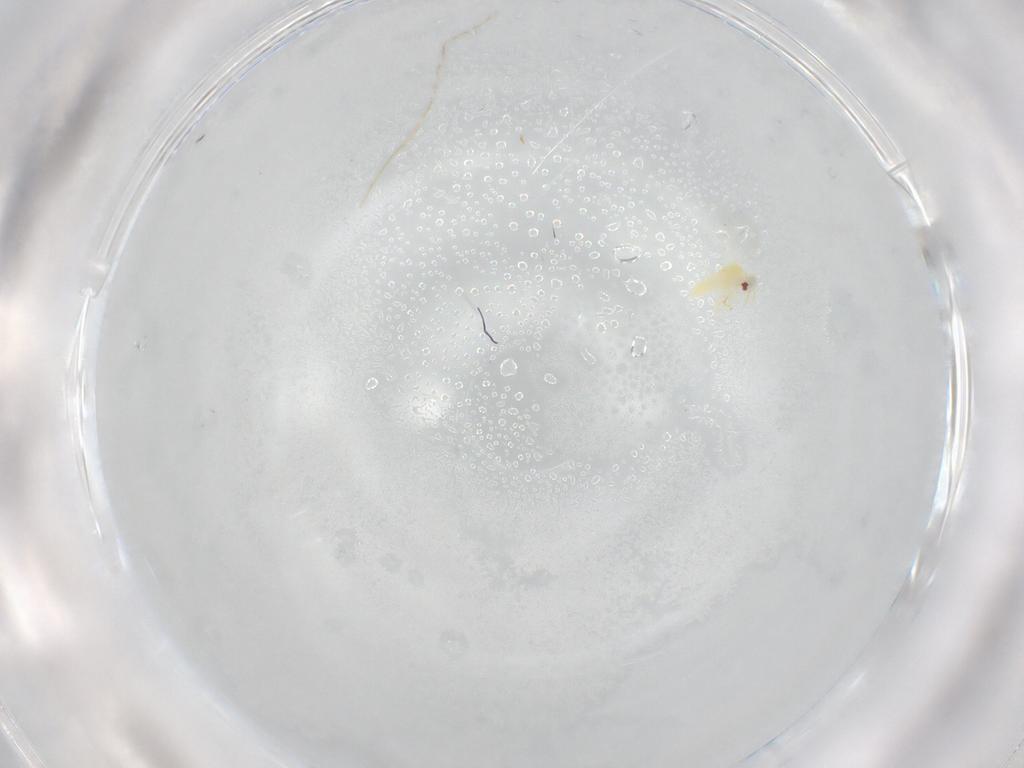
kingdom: Animalia
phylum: Arthropoda
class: Insecta
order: Hemiptera
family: Aleyrodidae
